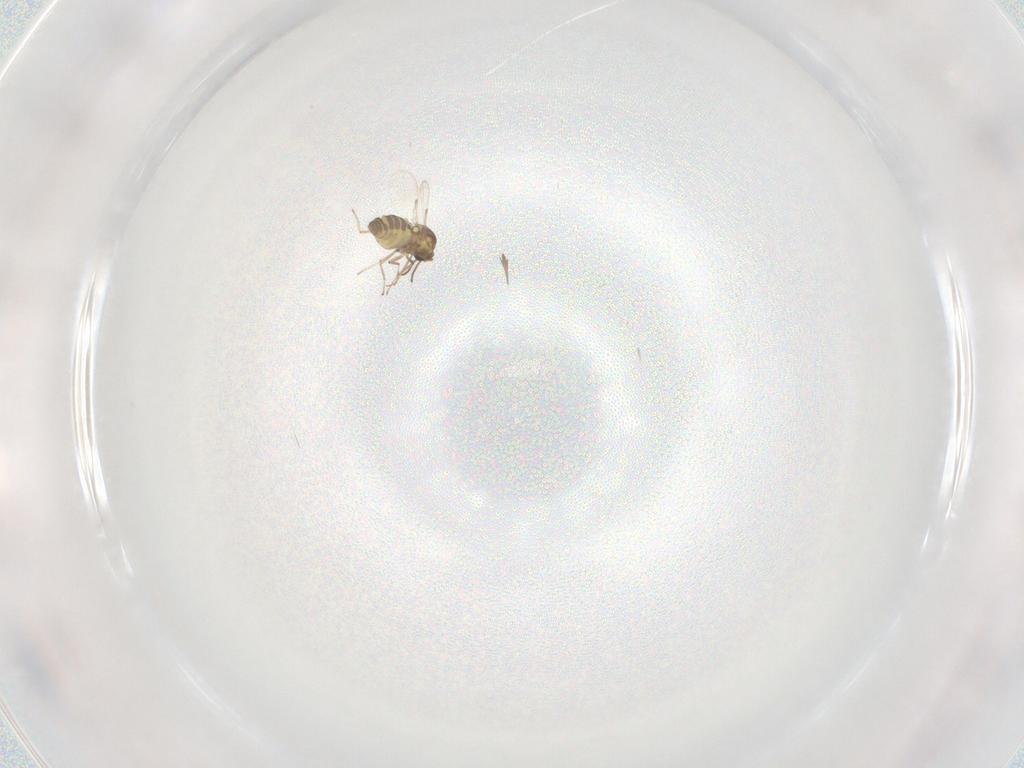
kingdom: Animalia
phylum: Arthropoda
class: Insecta
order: Diptera
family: Ceratopogonidae
